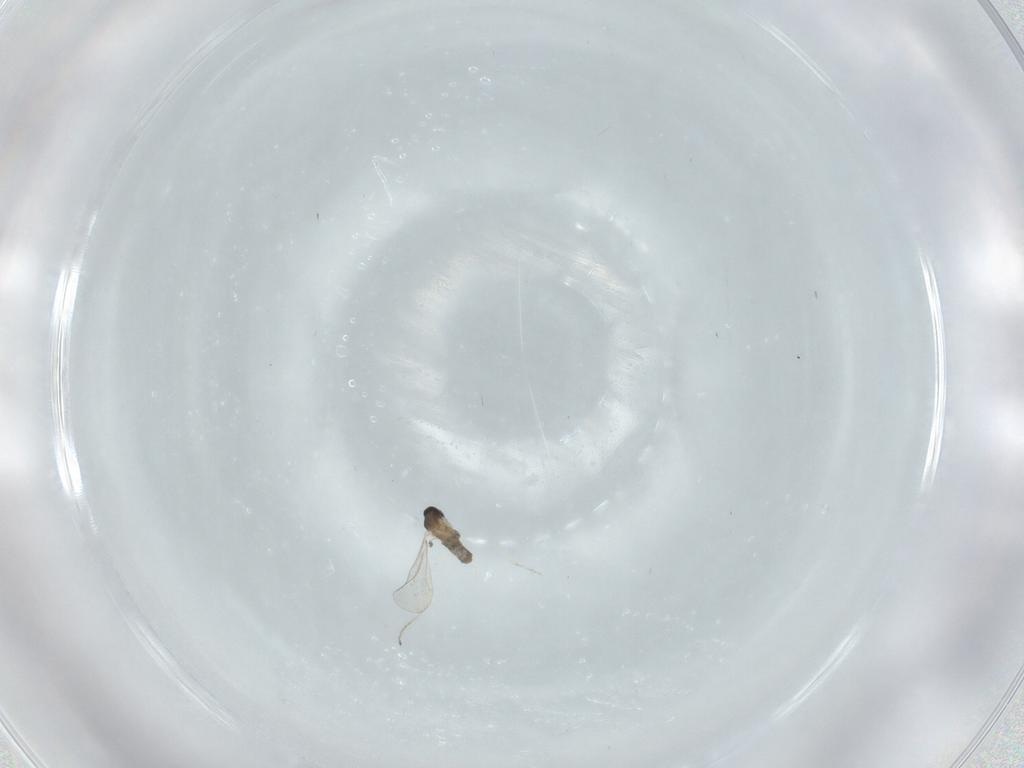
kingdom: Animalia
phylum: Arthropoda
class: Insecta
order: Diptera
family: Cecidomyiidae
